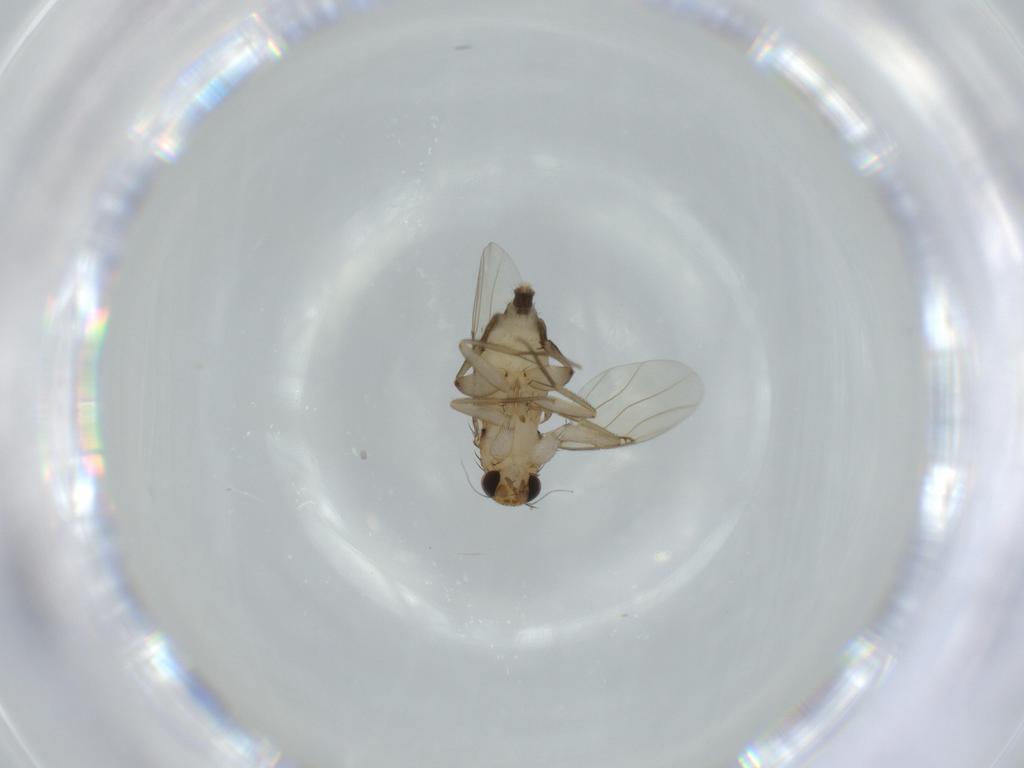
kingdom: Animalia
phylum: Arthropoda
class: Insecta
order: Diptera
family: Phoridae
